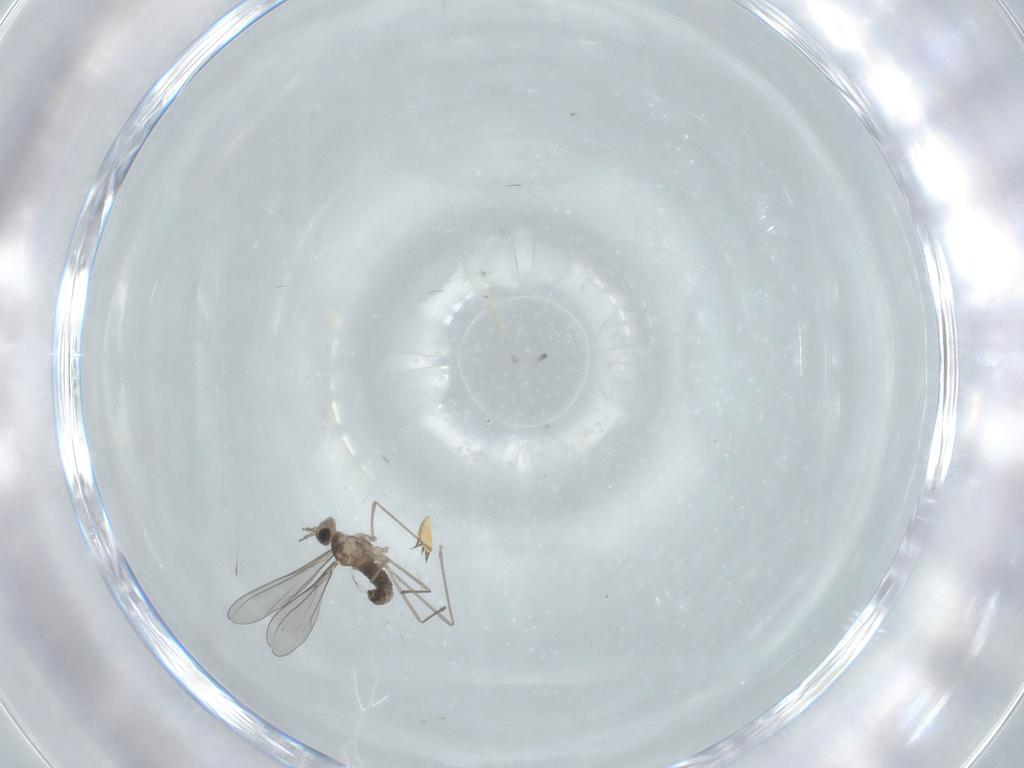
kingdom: Animalia
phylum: Arthropoda
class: Insecta
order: Diptera
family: Cecidomyiidae
